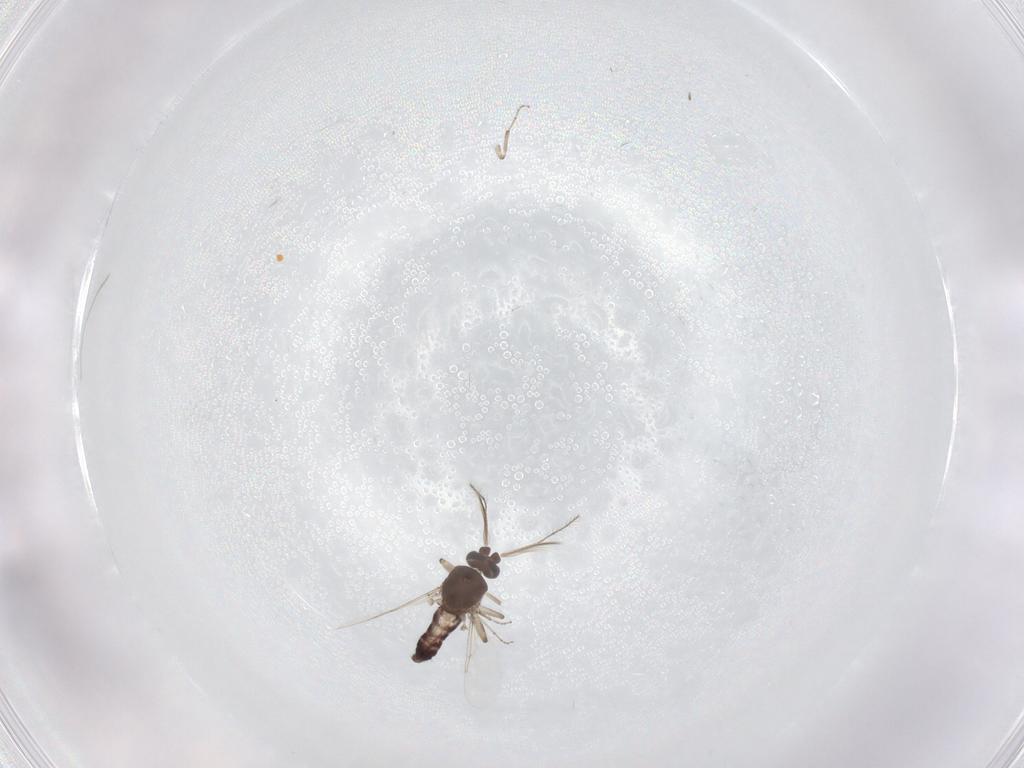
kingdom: Animalia
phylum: Arthropoda
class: Insecta
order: Diptera
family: Ceratopogonidae
